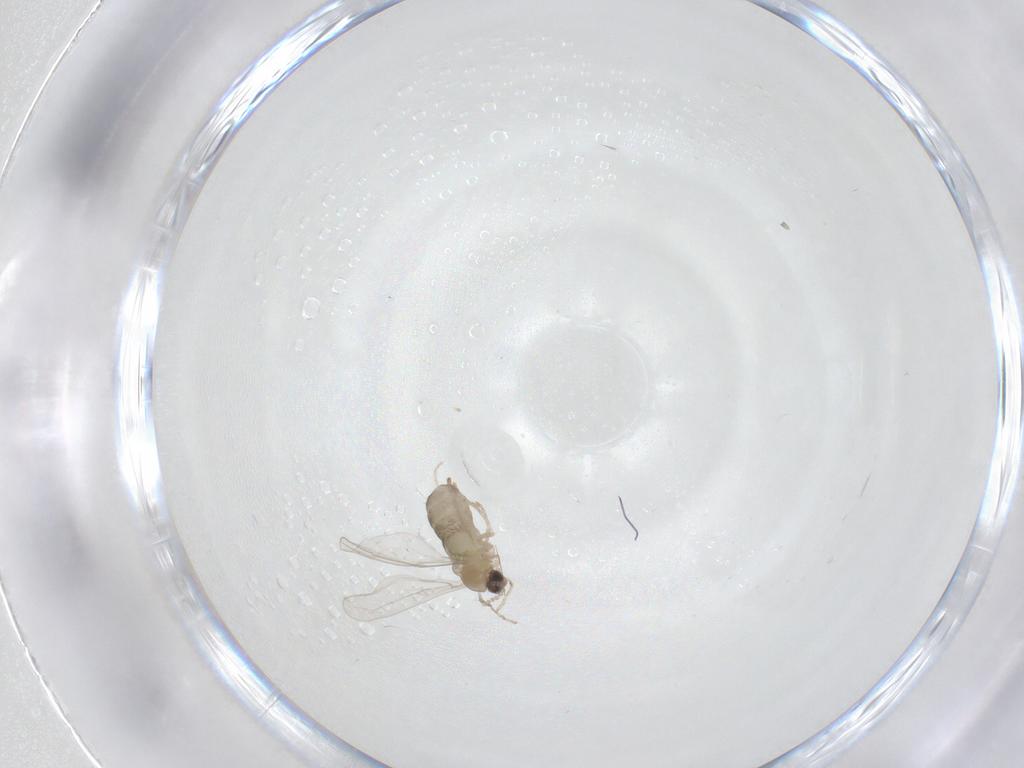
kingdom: Animalia
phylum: Arthropoda
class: Insecta
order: Diptera
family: Cecidomyiidae
